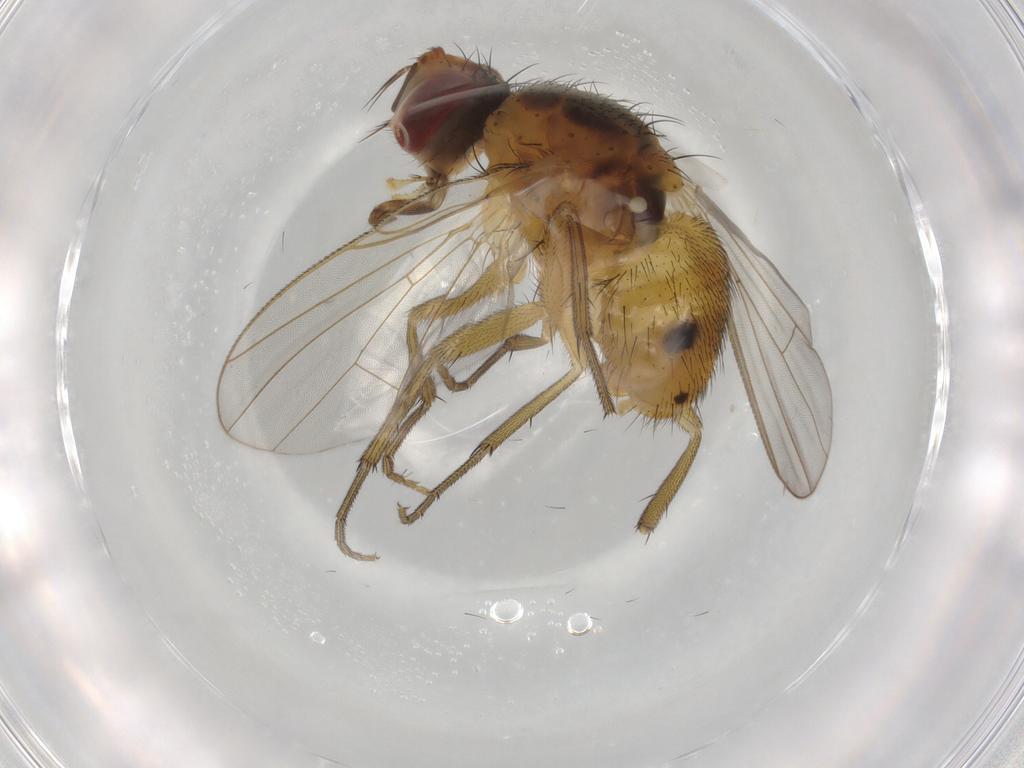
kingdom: Animalia
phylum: Arthropoda
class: Insecta
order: Diptera
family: Muscidae
